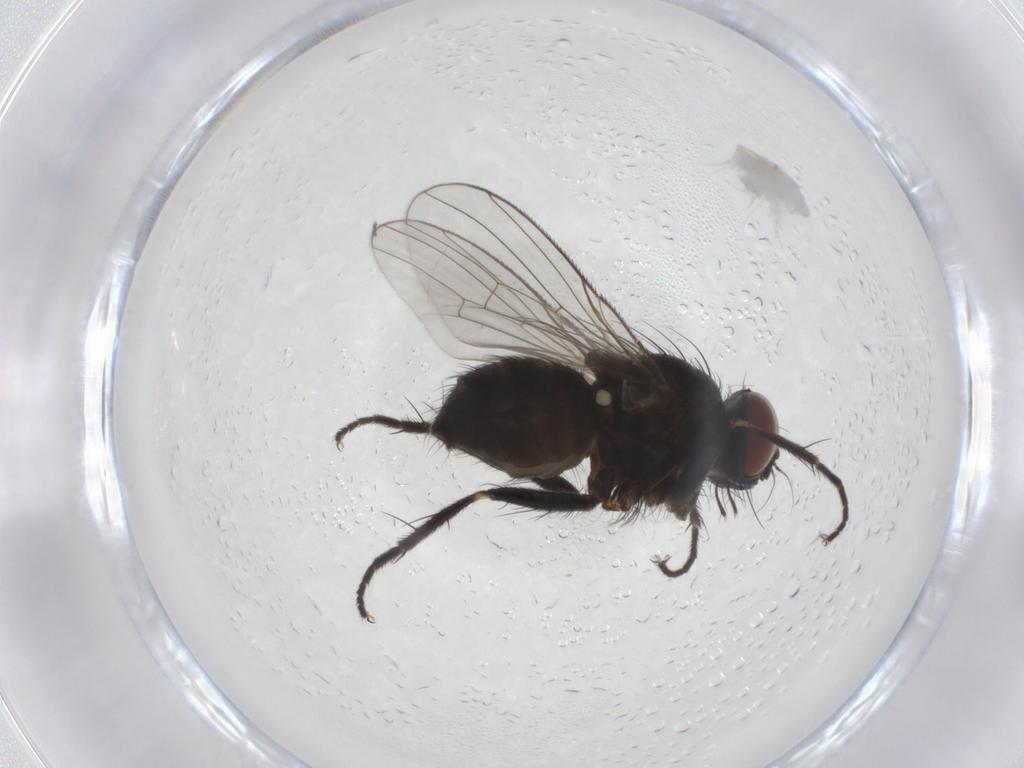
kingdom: Animalia
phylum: Arthropoda
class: Insecta
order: Diptera
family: Muscidae
